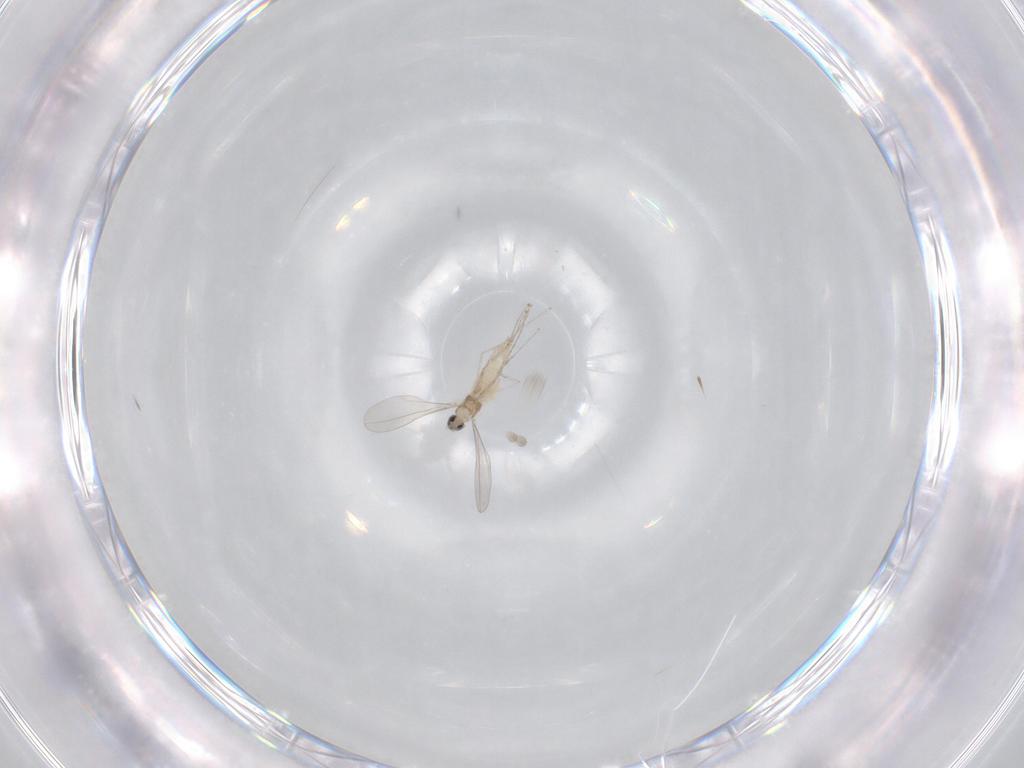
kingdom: Animalia
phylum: Arthropoda
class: Insecta
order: Diptera
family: Cecidomyiidae
